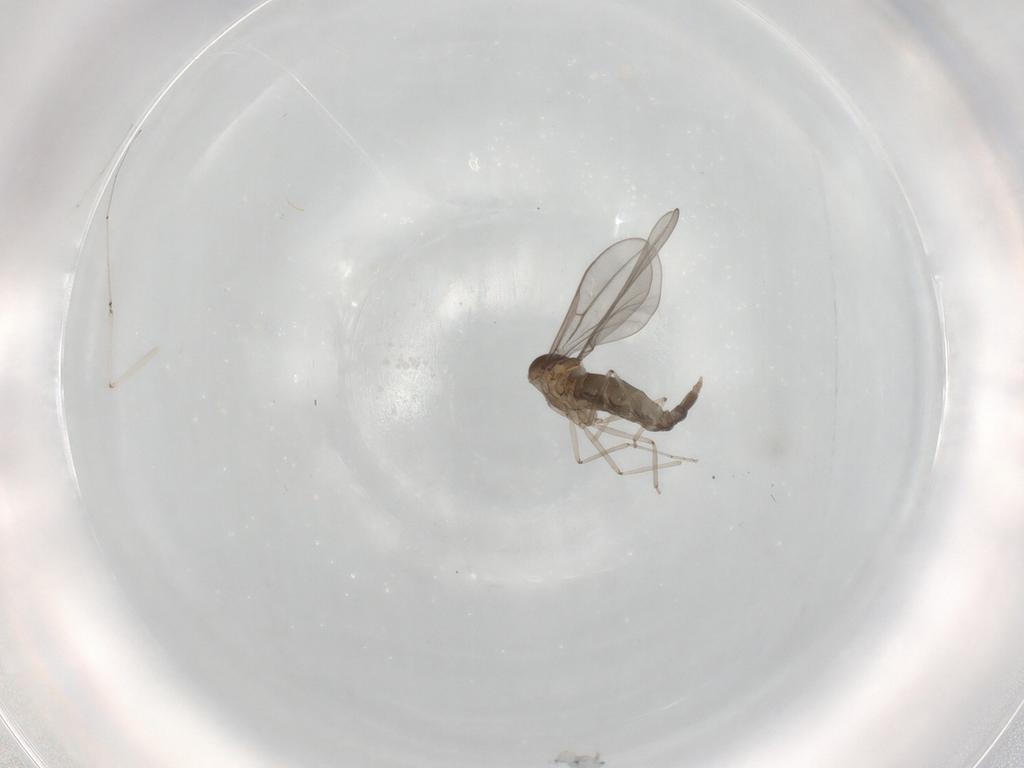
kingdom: Animalia
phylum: Arthropoda
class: Insecta
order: Diptera
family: Cecidomyiidae
